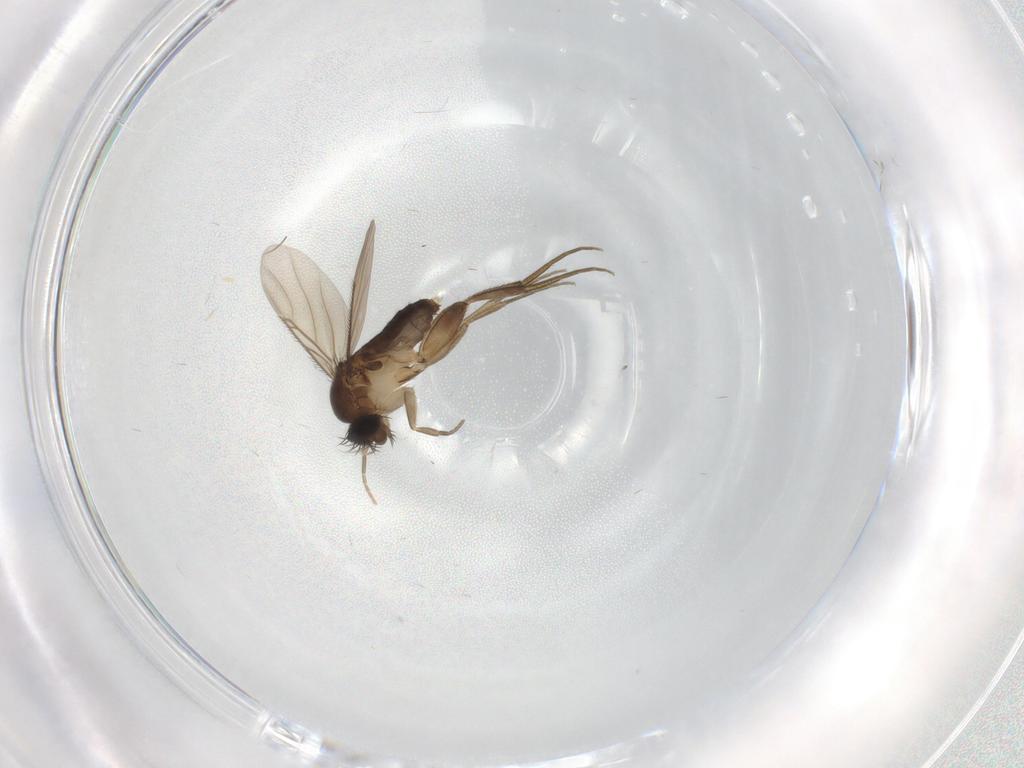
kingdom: Animalia
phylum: Arthropoda
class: Insecta
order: Diptera
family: Phoridae
